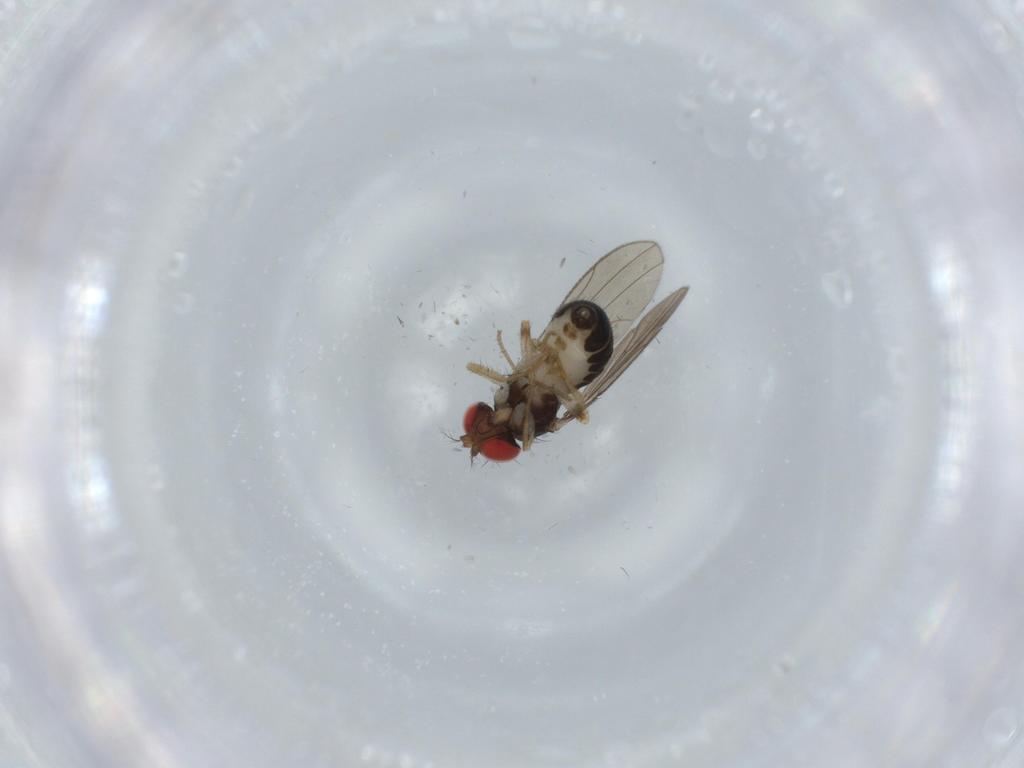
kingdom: Animalia
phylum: Arthropoda
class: Insecta
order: Diptera
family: Drosophilidae
